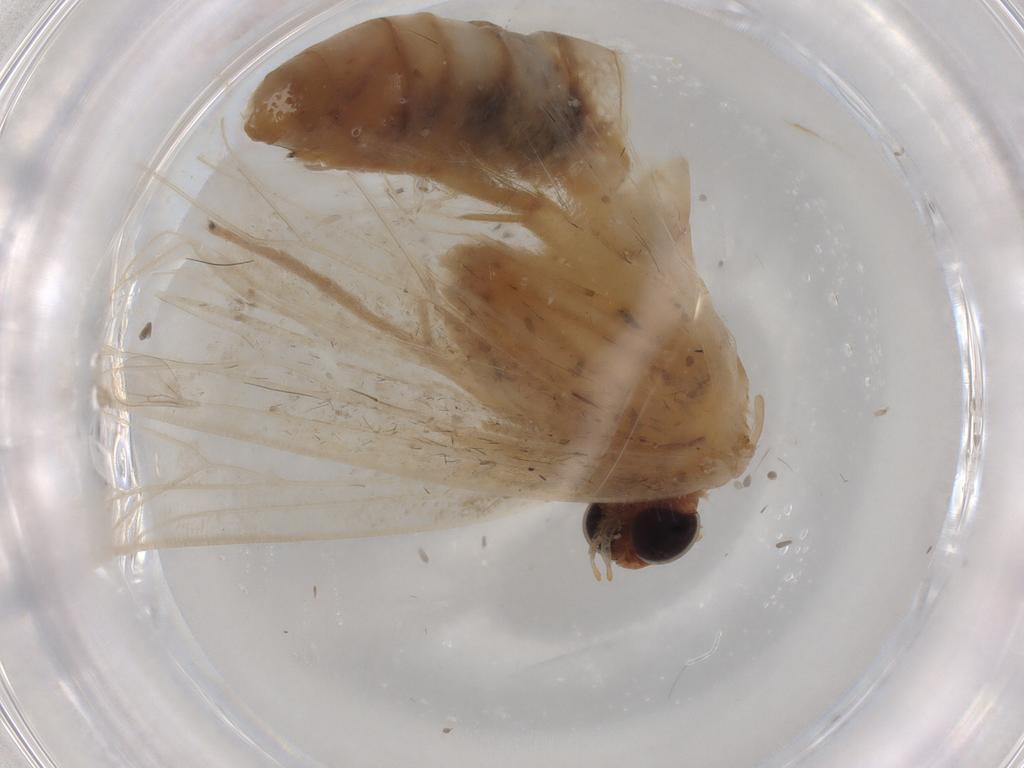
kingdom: Animalia
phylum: Arthropoda
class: Insecta
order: Lepidoptera
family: Geometridae
